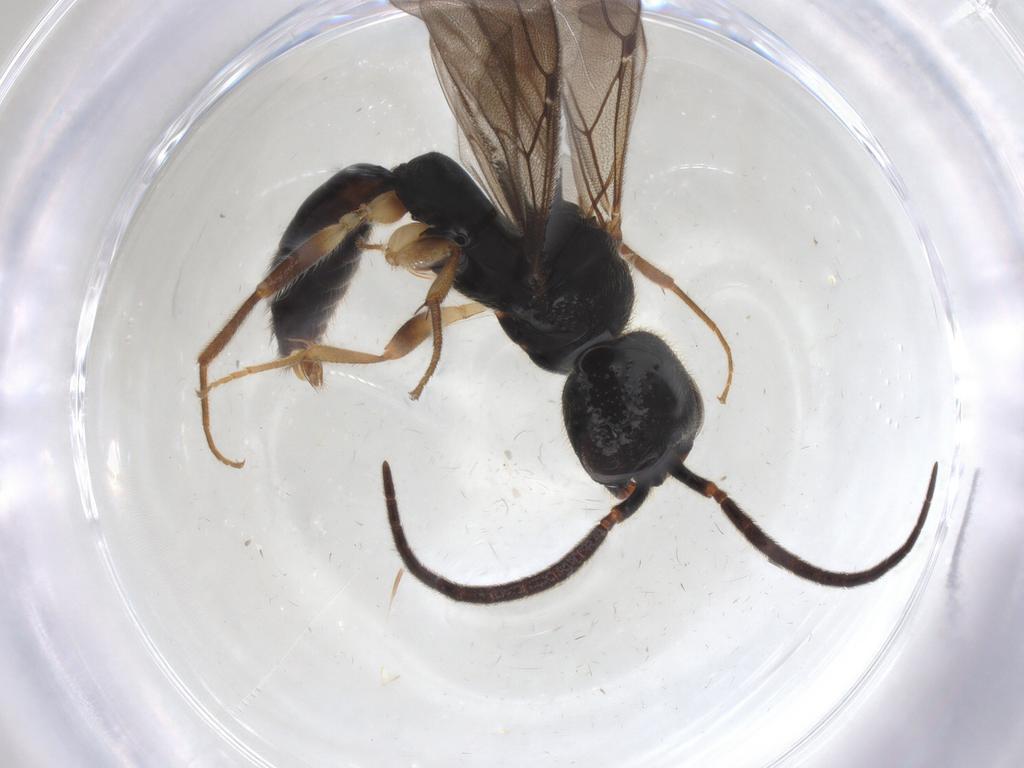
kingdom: Animalia
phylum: Arthropoda
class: Insecta
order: Hymenoptera
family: Bethylidae
